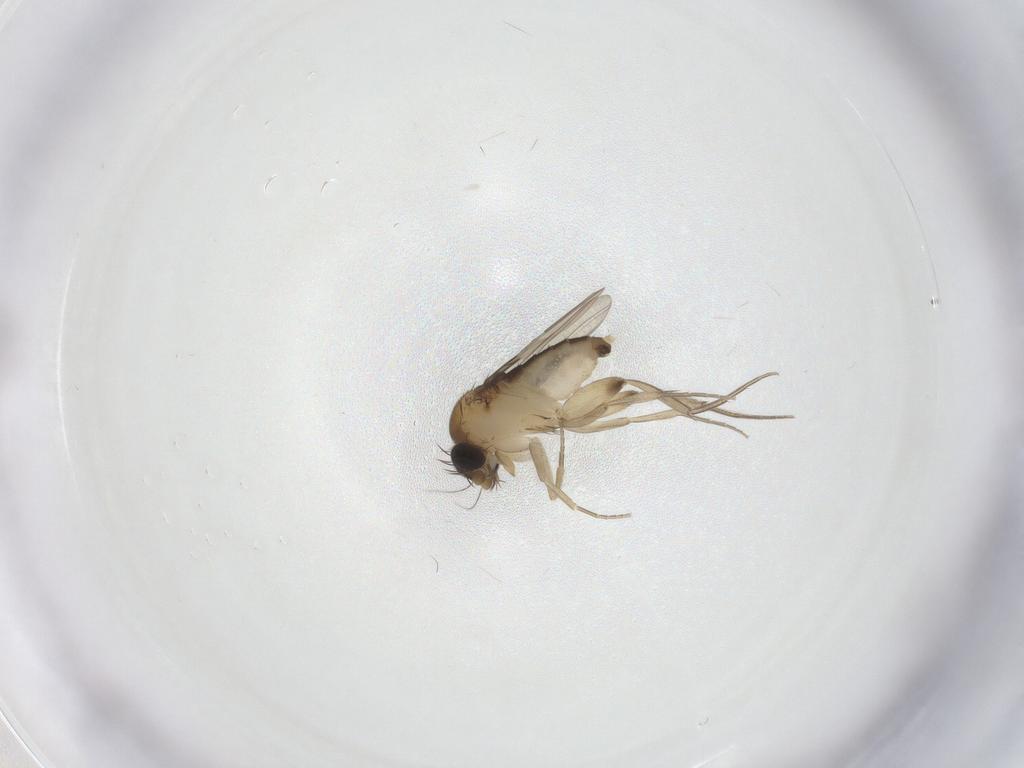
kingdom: Animalia
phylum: Arthropoda
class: Insecta
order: Diptera
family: Phoridae
